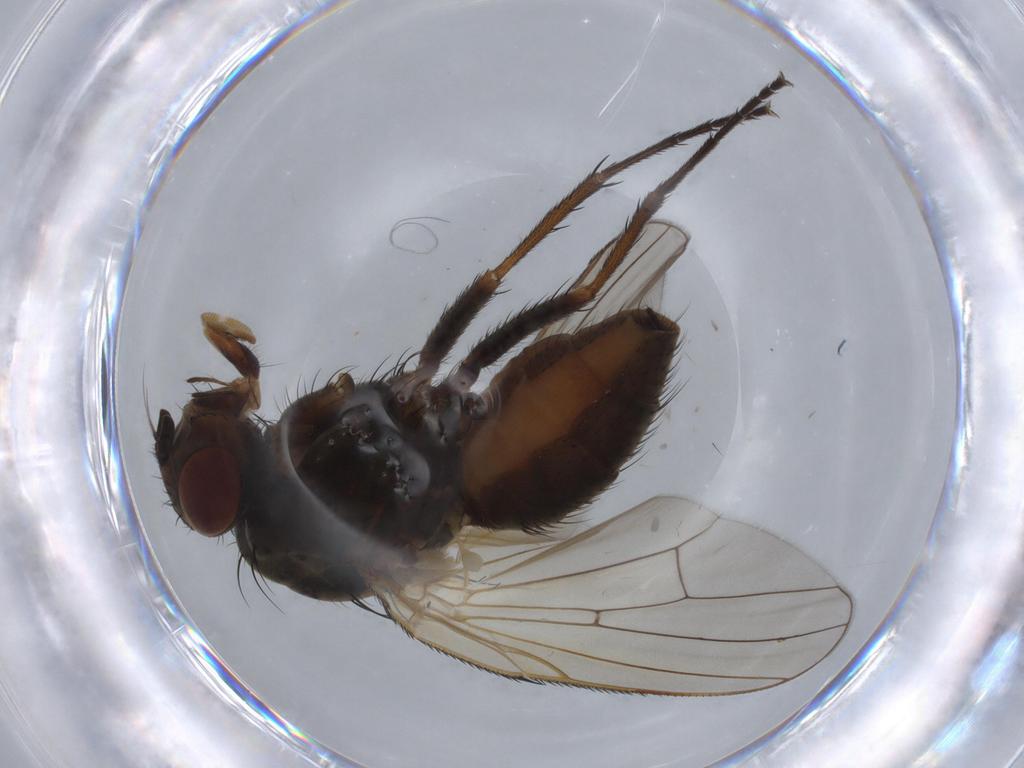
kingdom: Animalia
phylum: Arthropoda
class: Insecta
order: Diptera
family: Anthomyiidae
